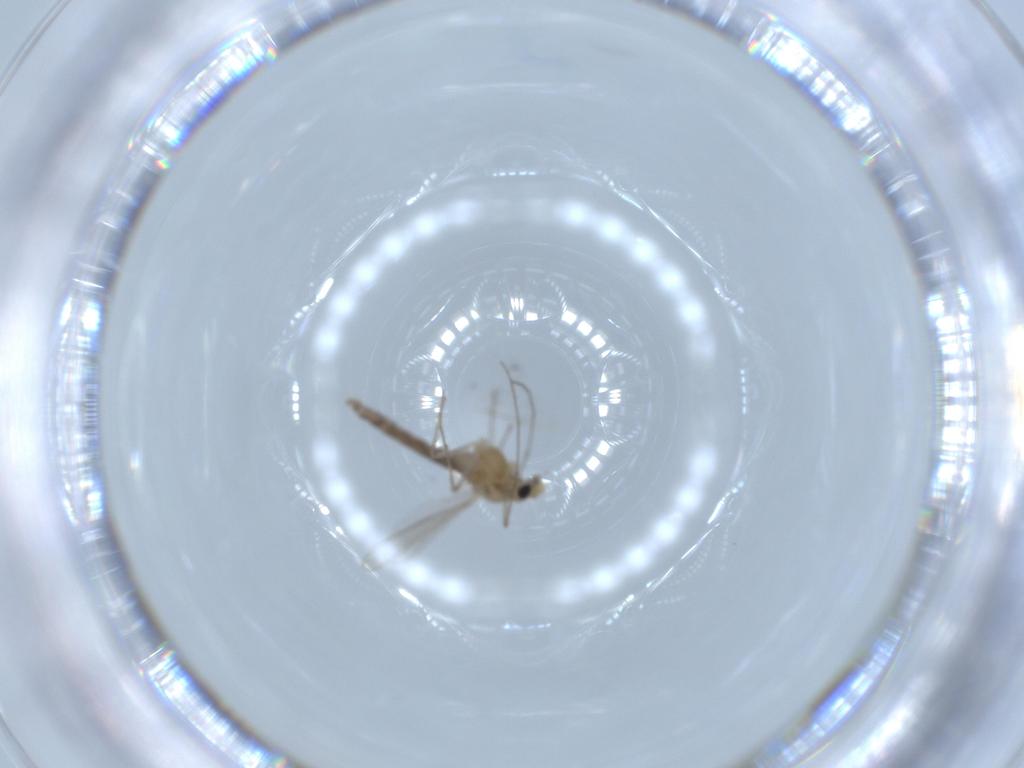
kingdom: Animalia
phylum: Arthropoda
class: Insecta
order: Diptera
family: Chironomidae
